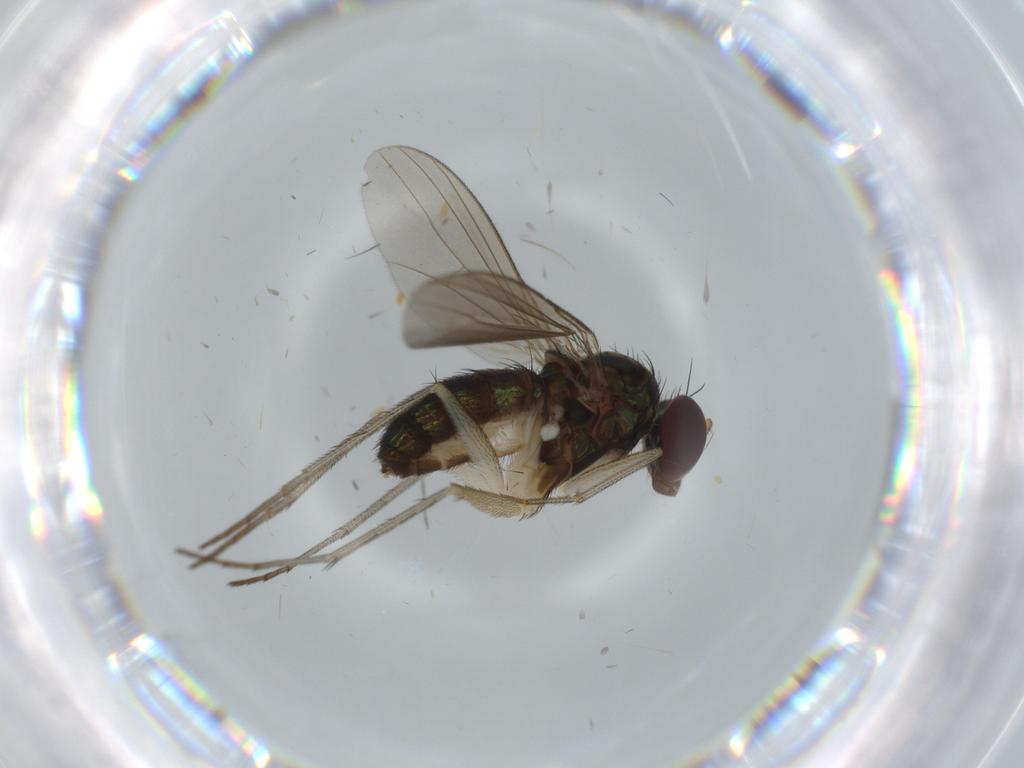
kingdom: Animalia
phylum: Arthropoda
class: Insecta
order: Diptera
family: Dolichopodidae
